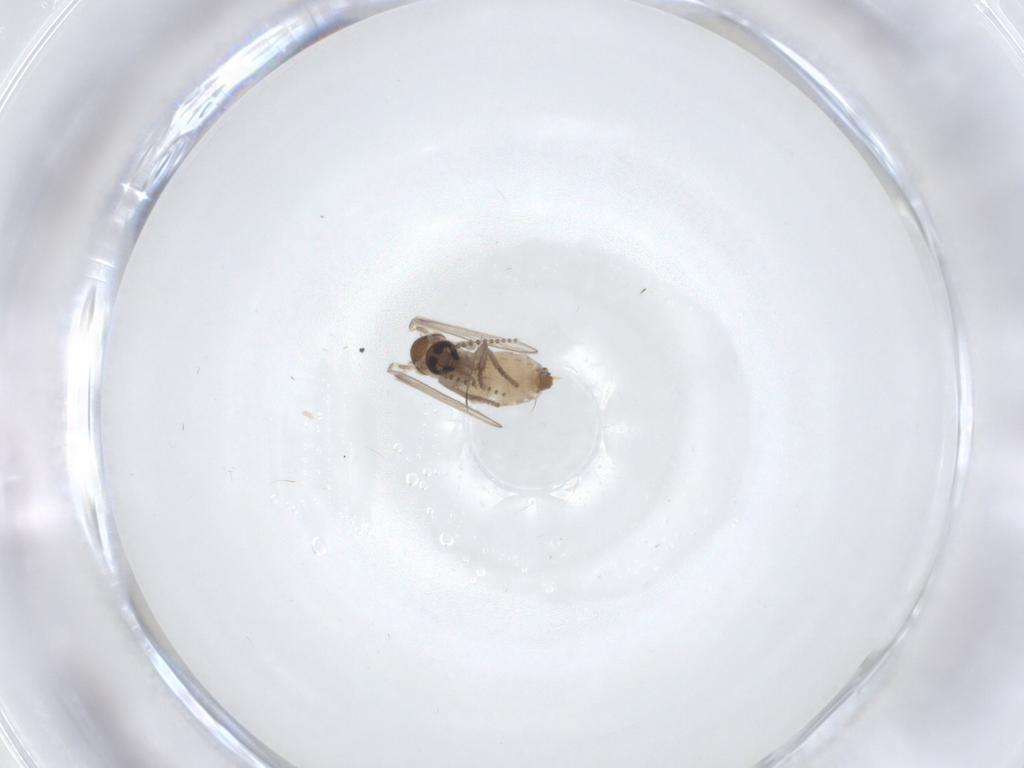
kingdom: Animalia
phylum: Arthropoda
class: Insecta
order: Diptera
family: Psychodidae
